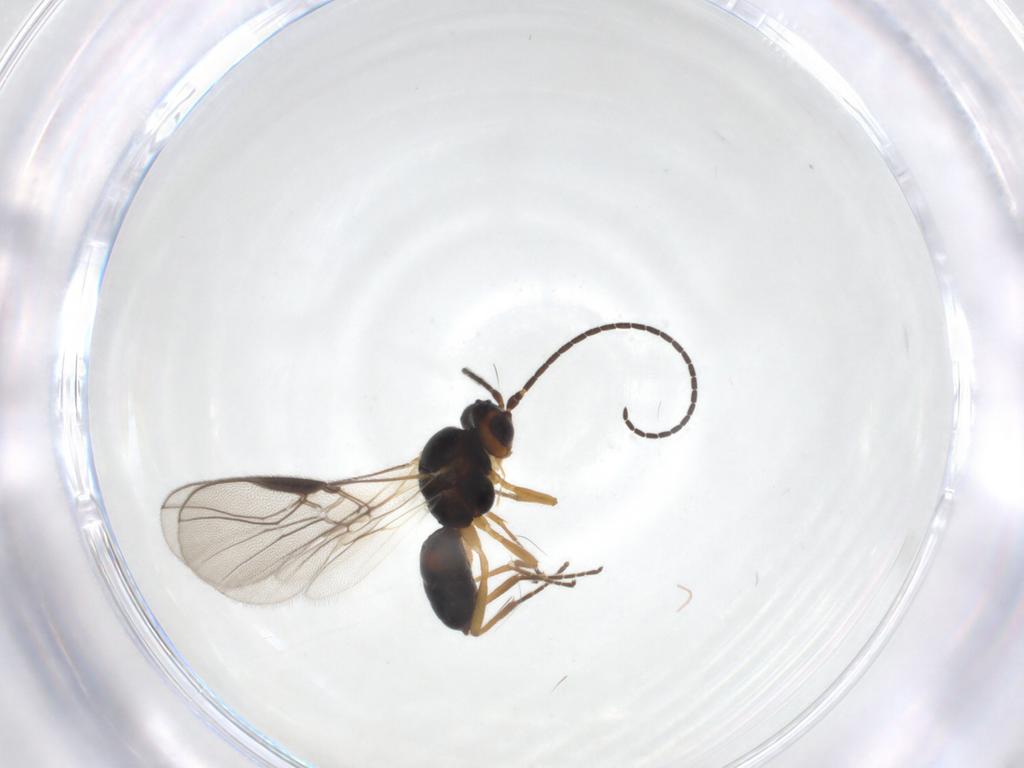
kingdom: Animalia
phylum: Arthropoda
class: Insecta
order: Hymenoptera
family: Braconidae
